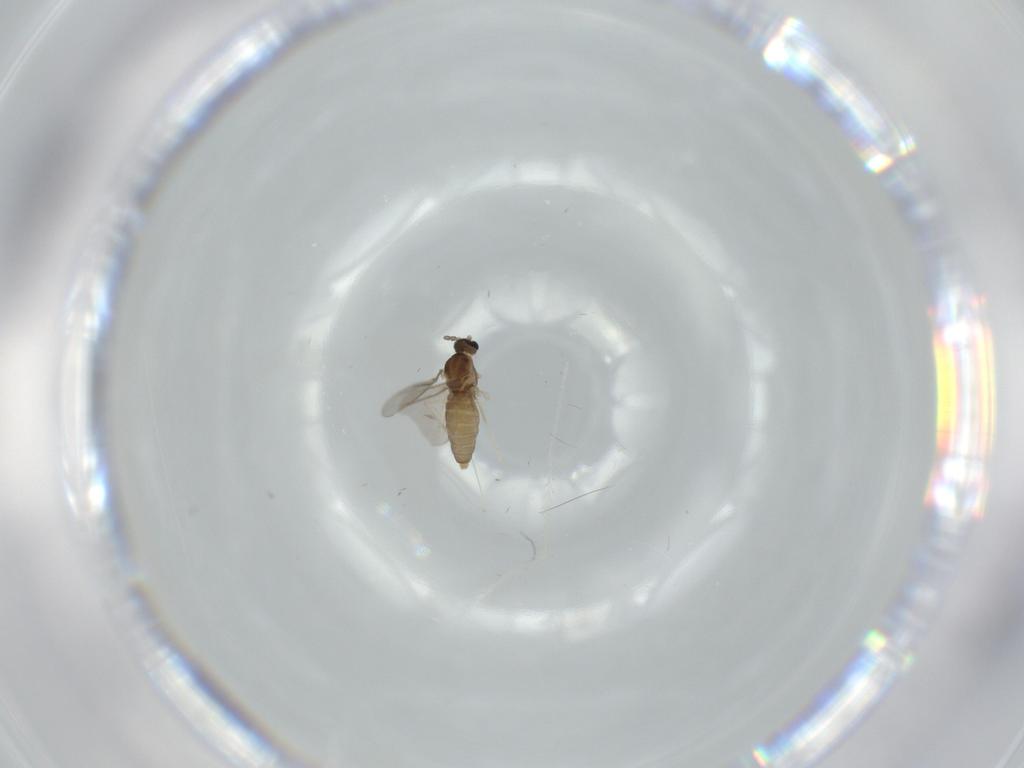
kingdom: Animalia
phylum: Arthropoda
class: Insecta
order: Diptera
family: Cecidomyiidae
